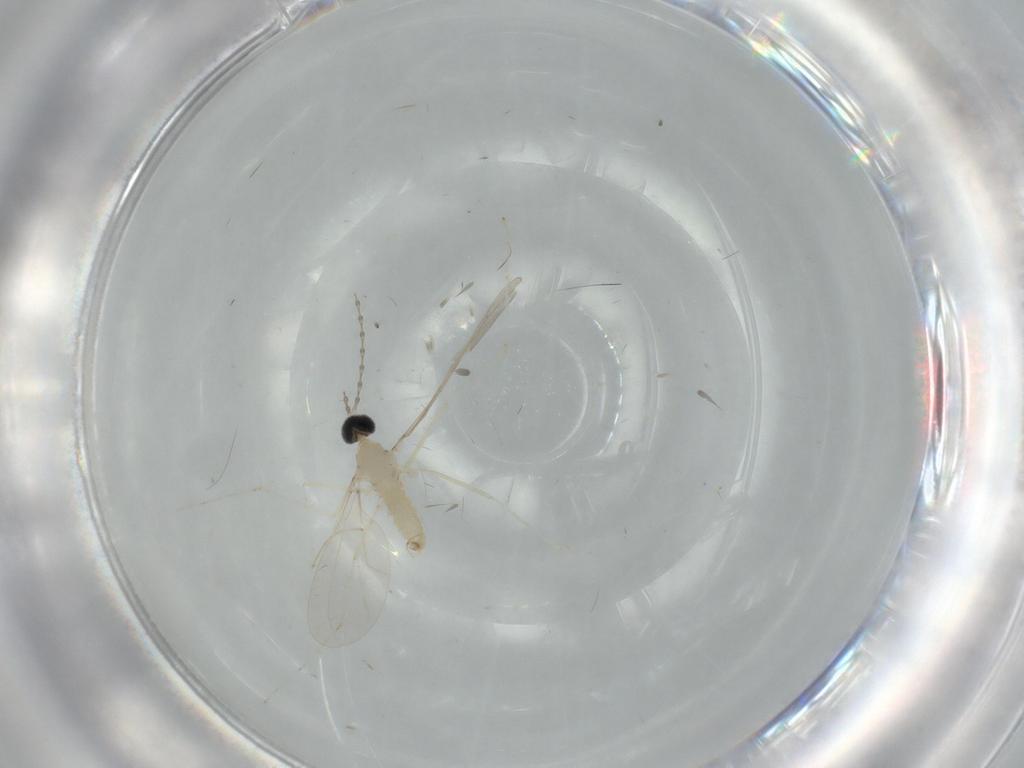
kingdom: Animalia
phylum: Arthropoda
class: Insecta
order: Diptera
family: Cecidomyiidae
